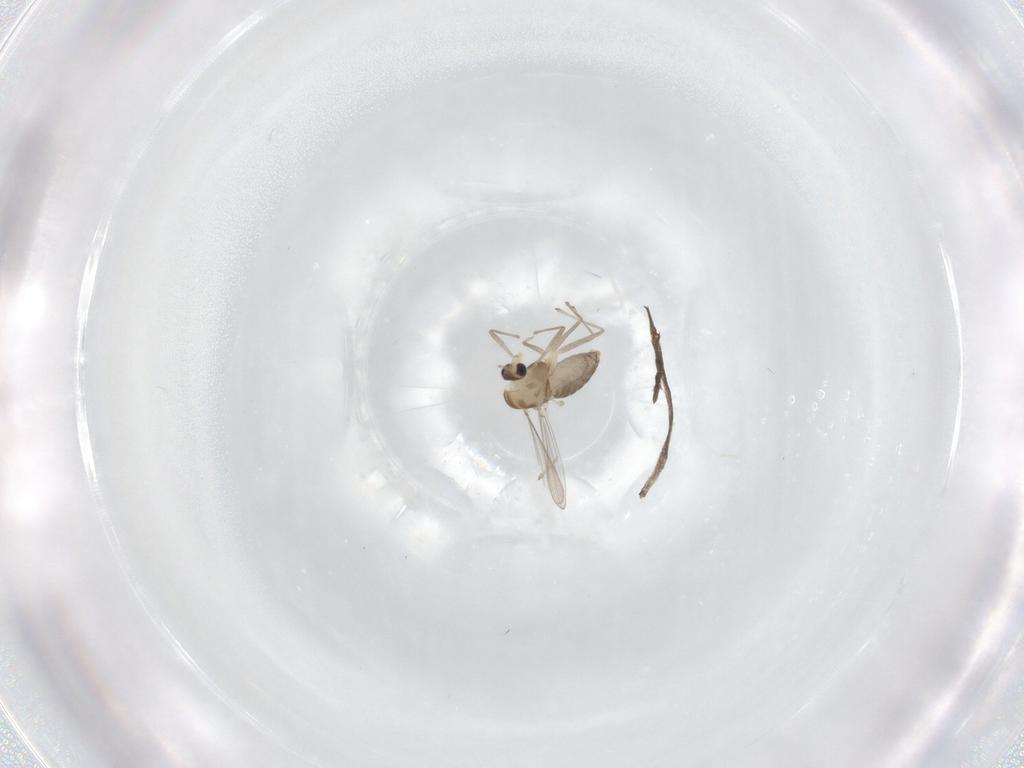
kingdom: Animalia
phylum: Arthropoda
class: Insecta
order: Diptera
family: Chironomidae
